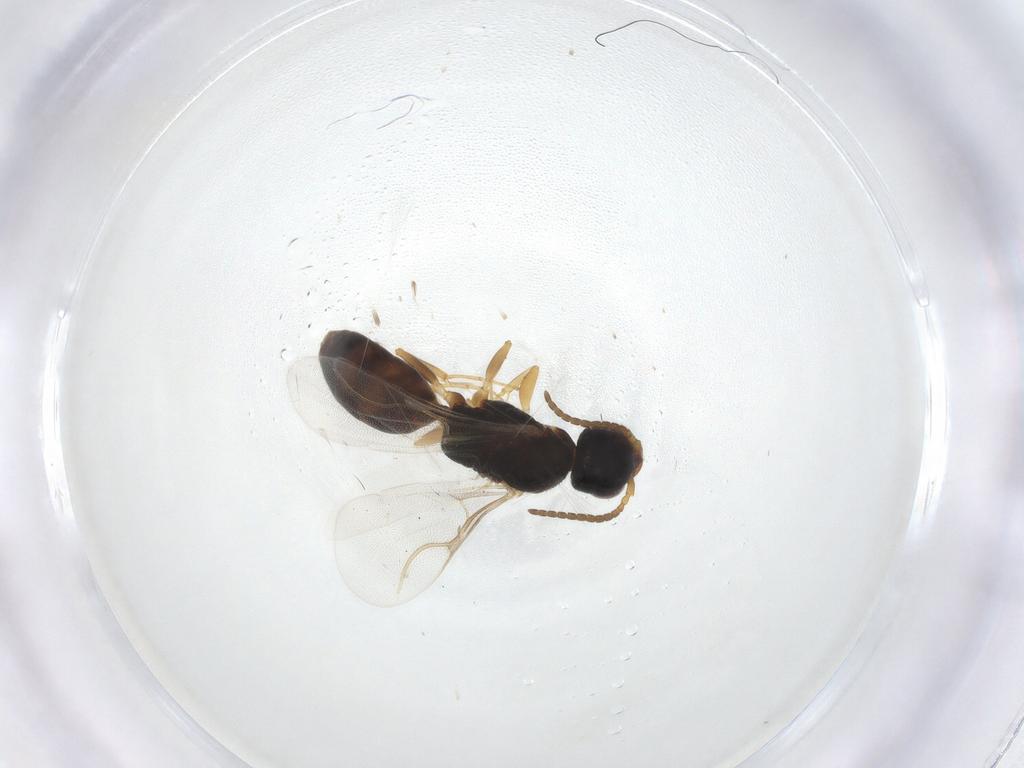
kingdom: Animalia
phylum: Arthropoda
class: Insecta
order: Hymenoptera
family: Bethylidae
